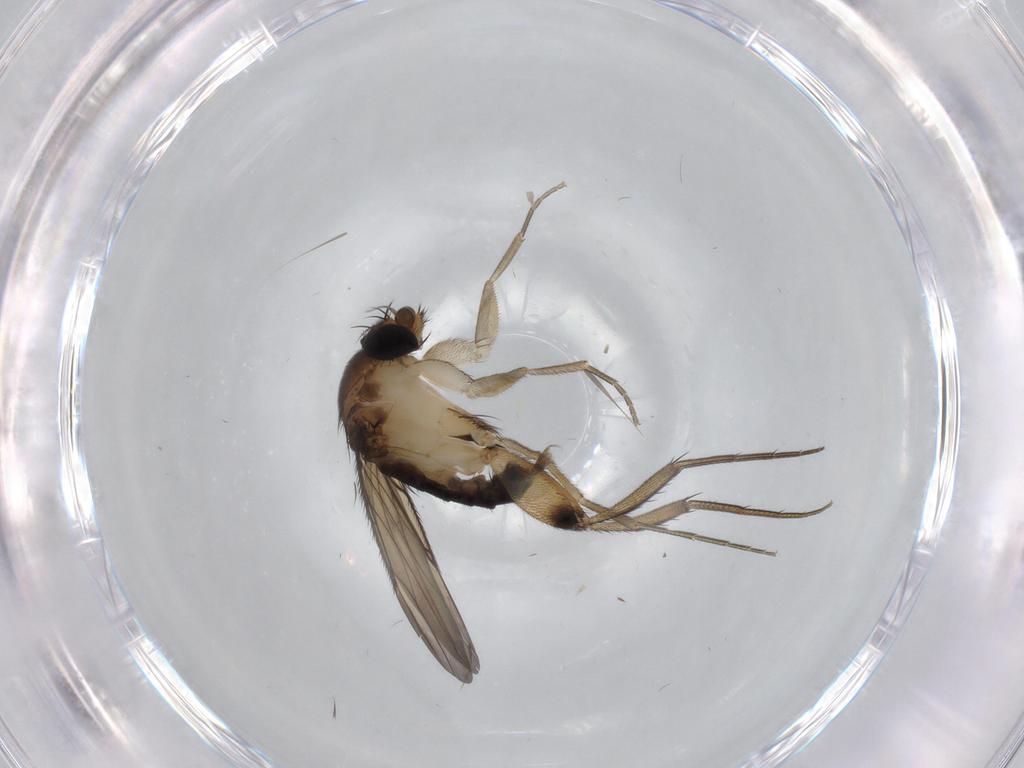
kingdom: Animalia
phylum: Arthropoda
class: Insecta
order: Diptera
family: Phoridae
